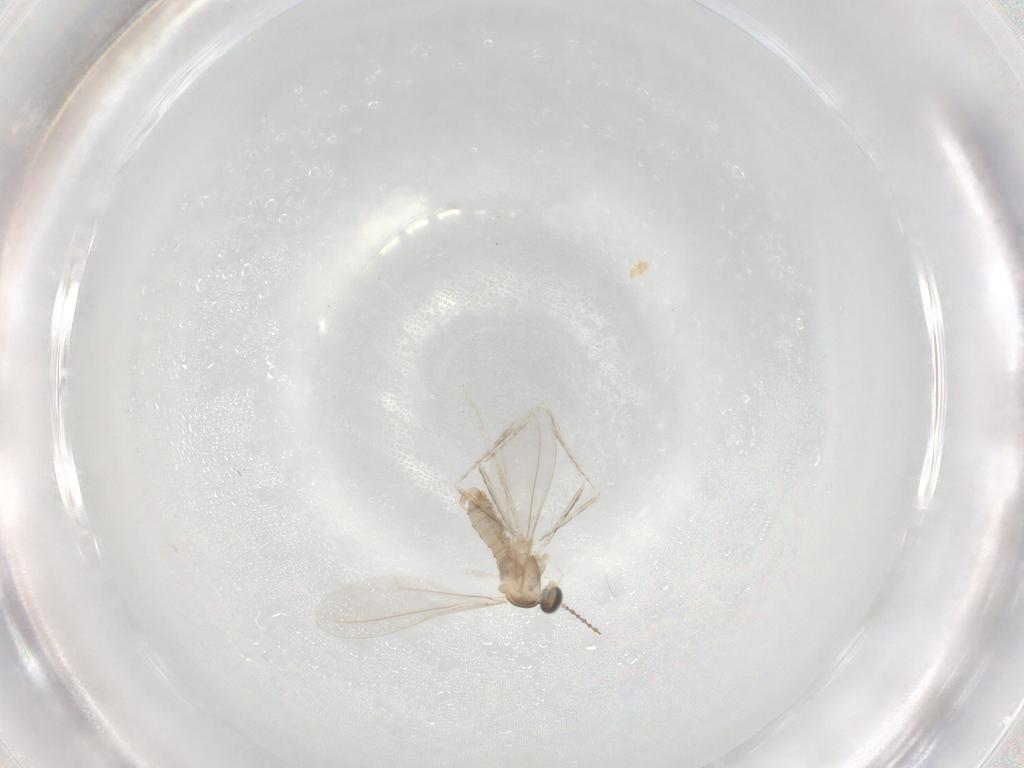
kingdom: Animalia
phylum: Arthropoda
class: Insecta
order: Diptera
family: Cecidomyiidae
